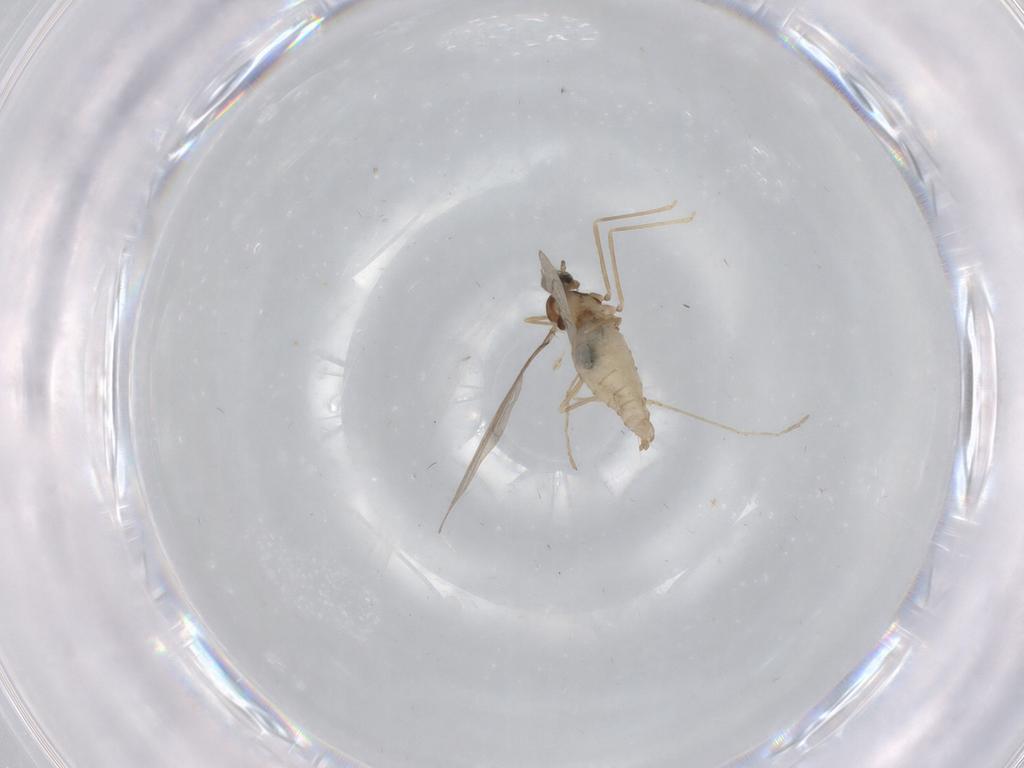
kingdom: Animalia
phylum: Arthropoda
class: Insecta
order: Diptera
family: Cecidomyiidae
